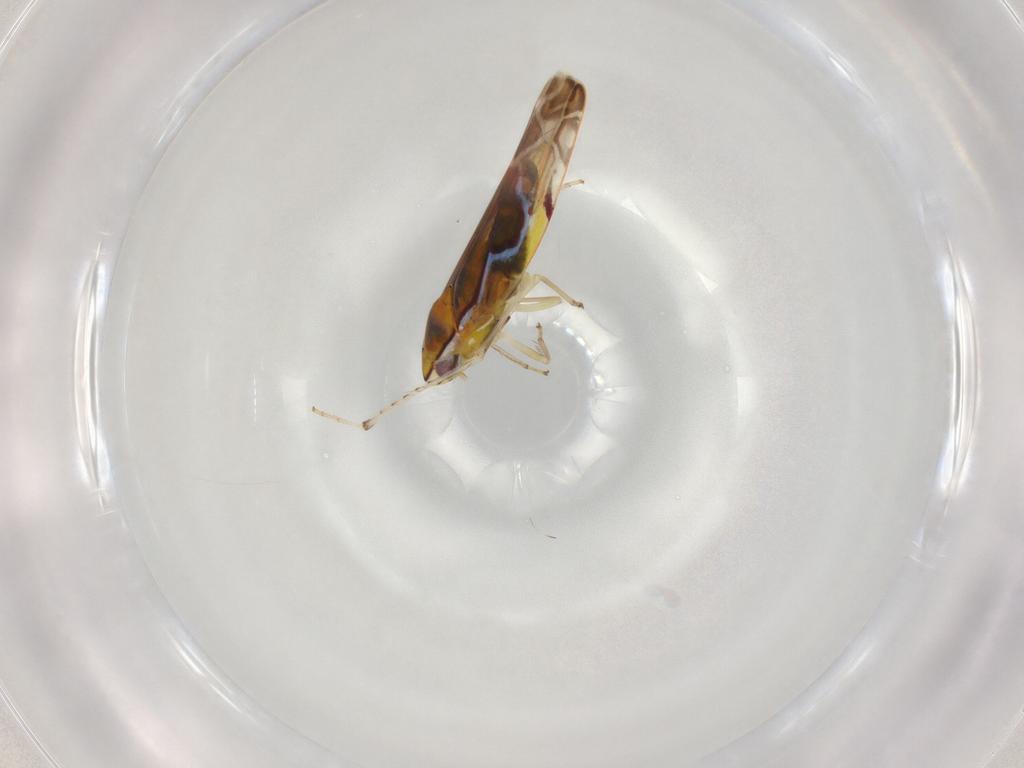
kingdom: Animalia
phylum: Arthropoda
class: Insecta
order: Hemiptera
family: Cicadellidae
